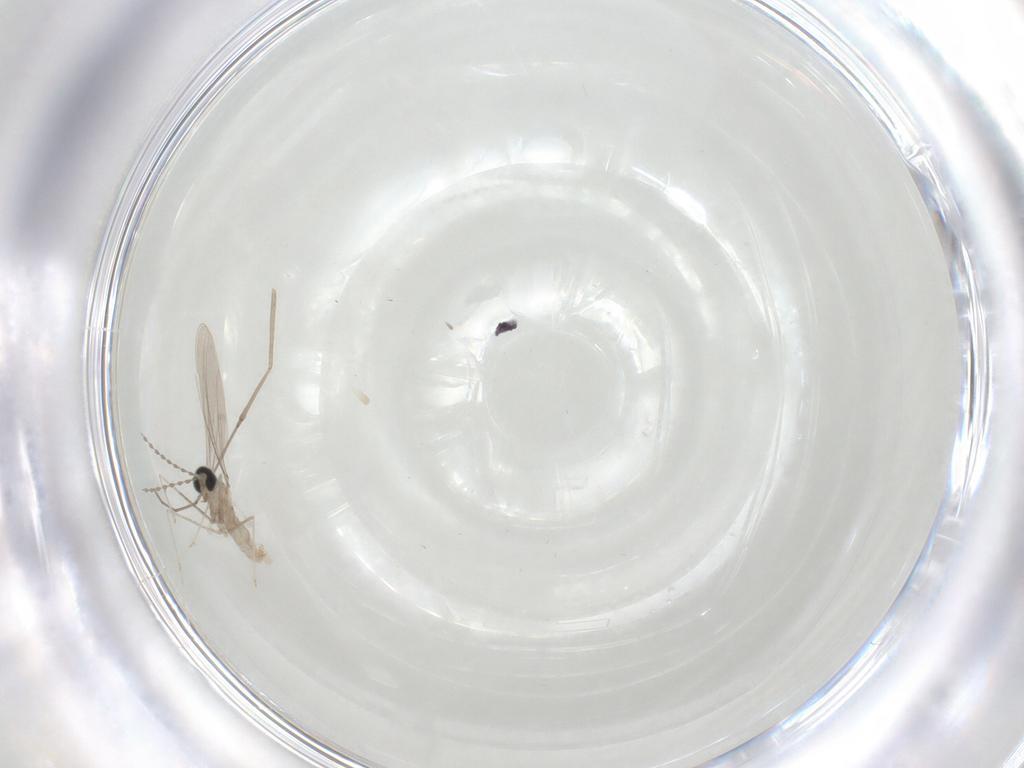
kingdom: Animalia
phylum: Arthropoda
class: Insecta
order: Diptera
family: Cecidomyiidae
